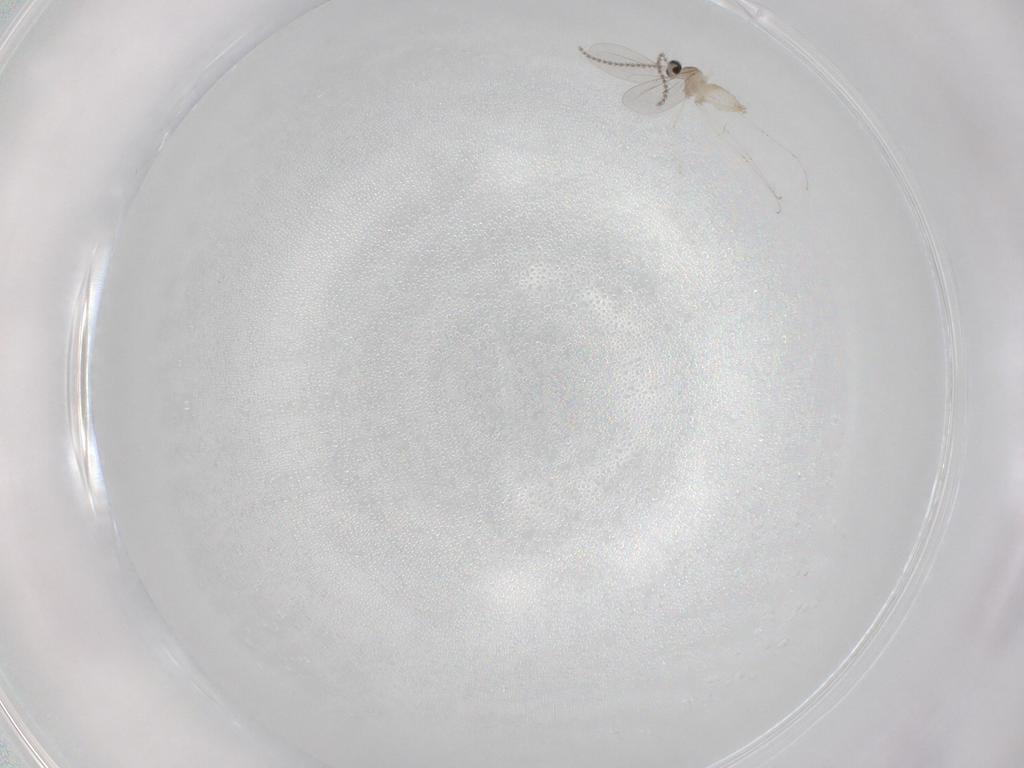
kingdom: Animalia
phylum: Arthropoda
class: Insecta
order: Diptera
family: Cecidomyiidae
